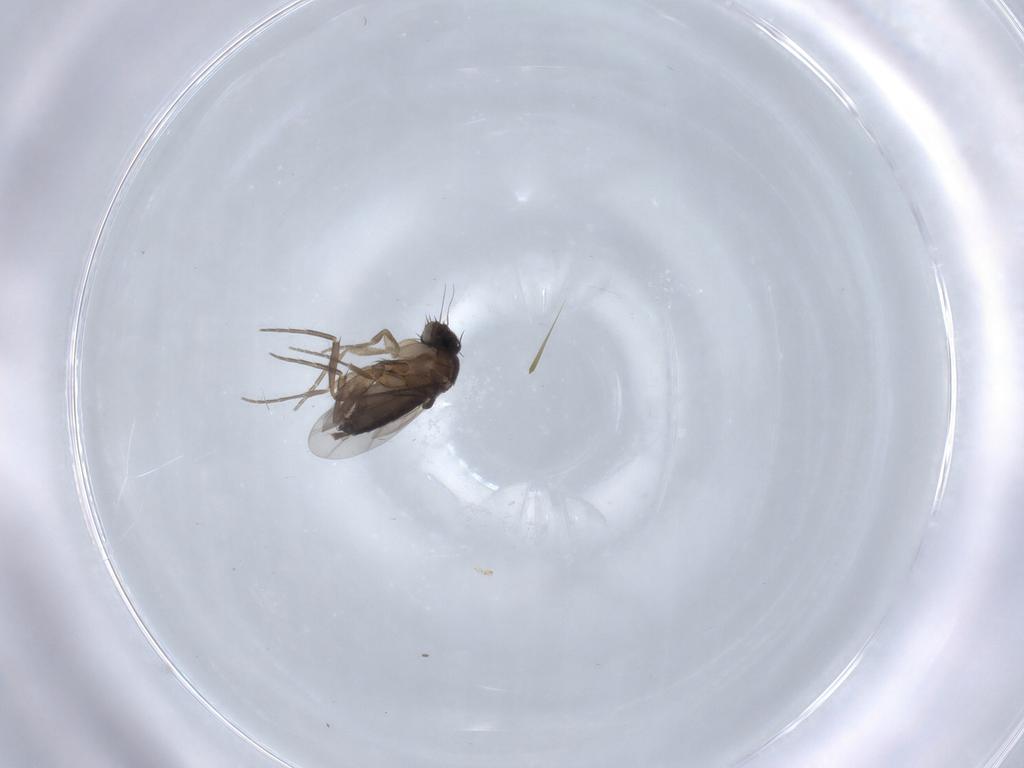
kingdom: Animalia
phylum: Arthropoda
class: Insecta
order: Diptera
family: Phoridae
